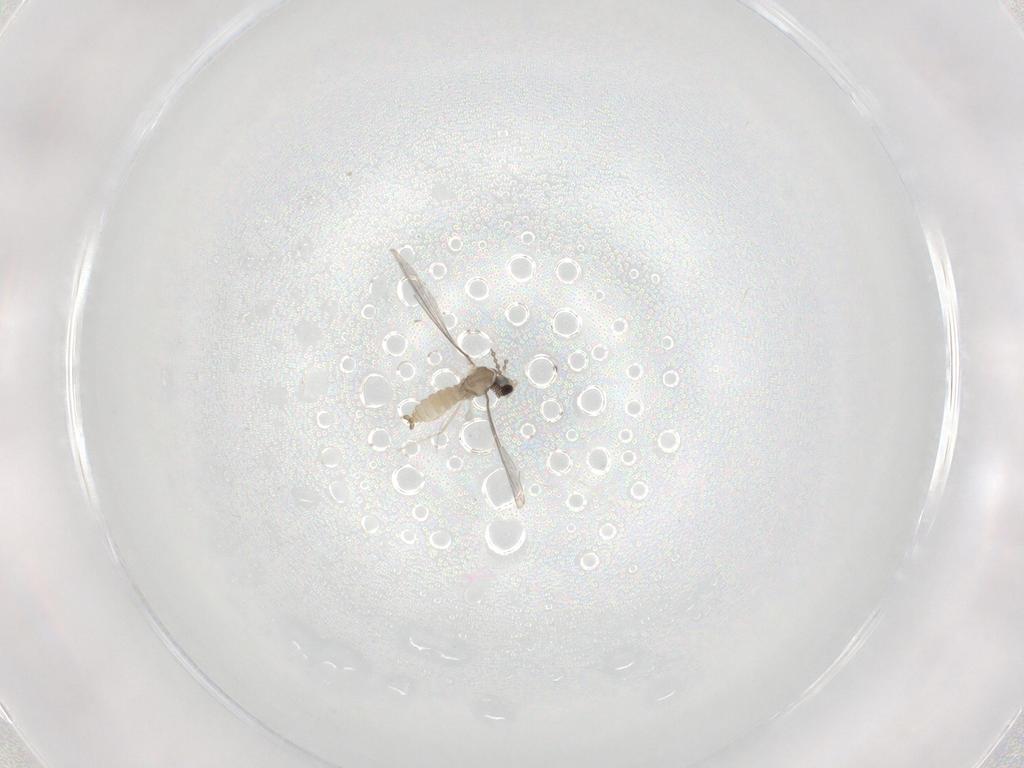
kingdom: Animalia
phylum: Arthropoda
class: Insecta
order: Diptera
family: Cecidomyiidae
